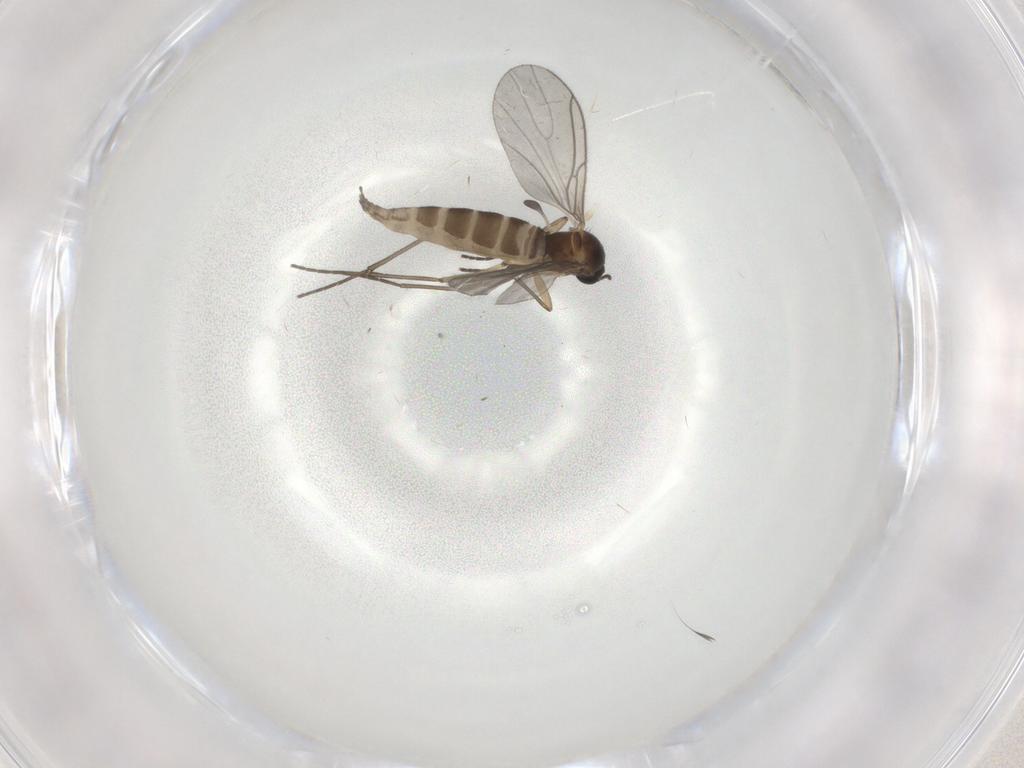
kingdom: Animalia
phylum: Arthropoda
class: Insecta
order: Diptera
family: Sciaridae
